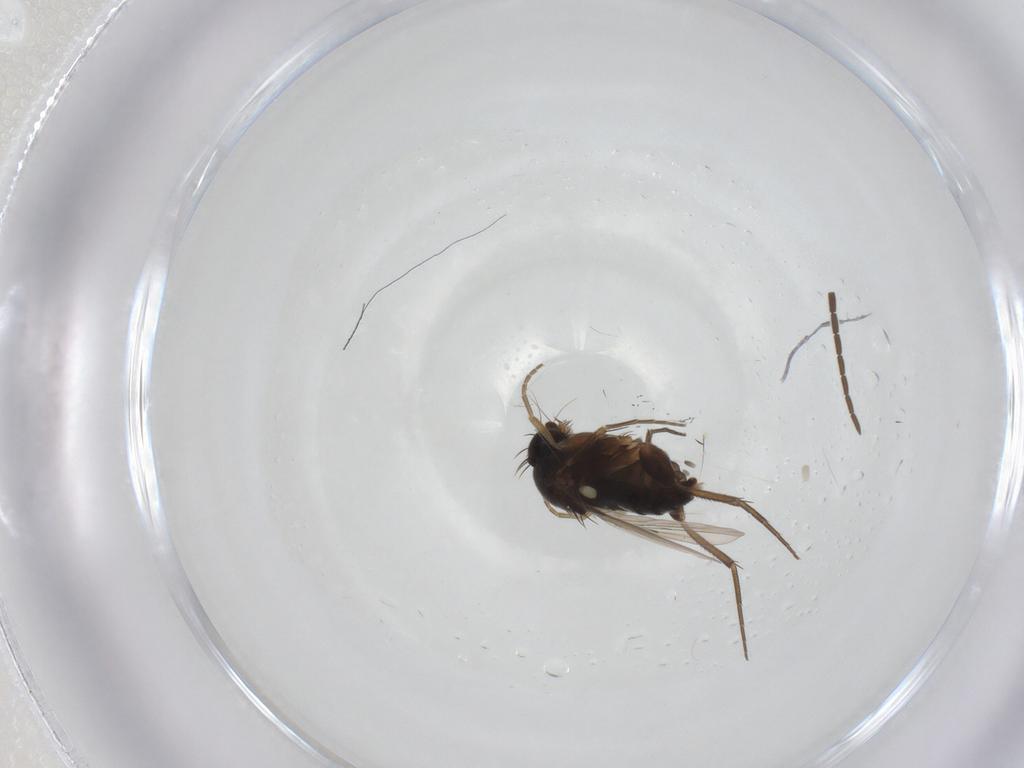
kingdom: Animalia
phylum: Arthropoda
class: Insecta
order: Diptera
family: Phoridae
